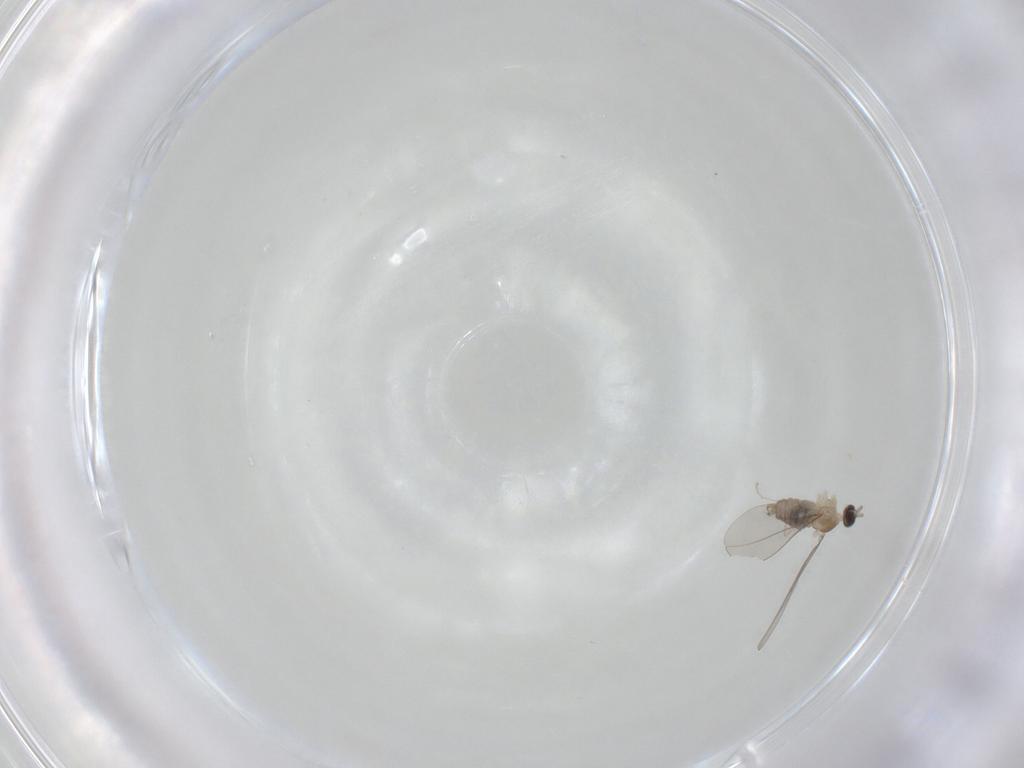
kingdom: Animalia
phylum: Arthropoda
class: Insecta
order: Diptera
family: Cecidomyiidae
